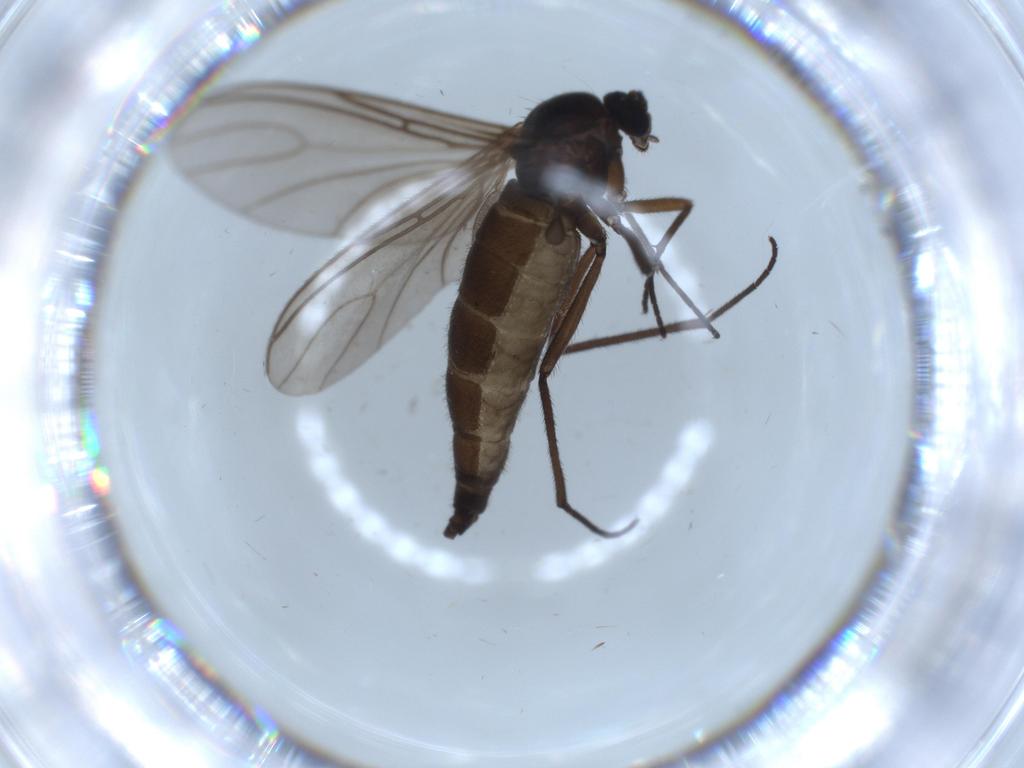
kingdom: Animalia
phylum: Arthropoda
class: Insecta
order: Diptera
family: Sciaridae
